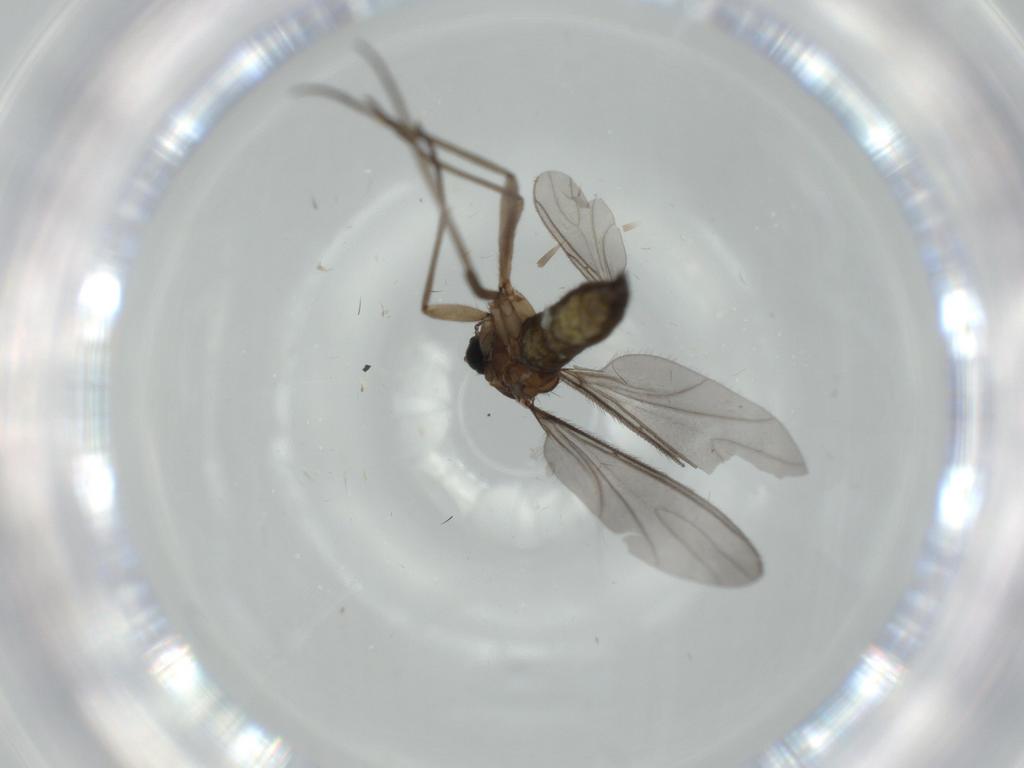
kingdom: Animalia
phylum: Arthropoda
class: Insecta
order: Diptera
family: Sciaridae
